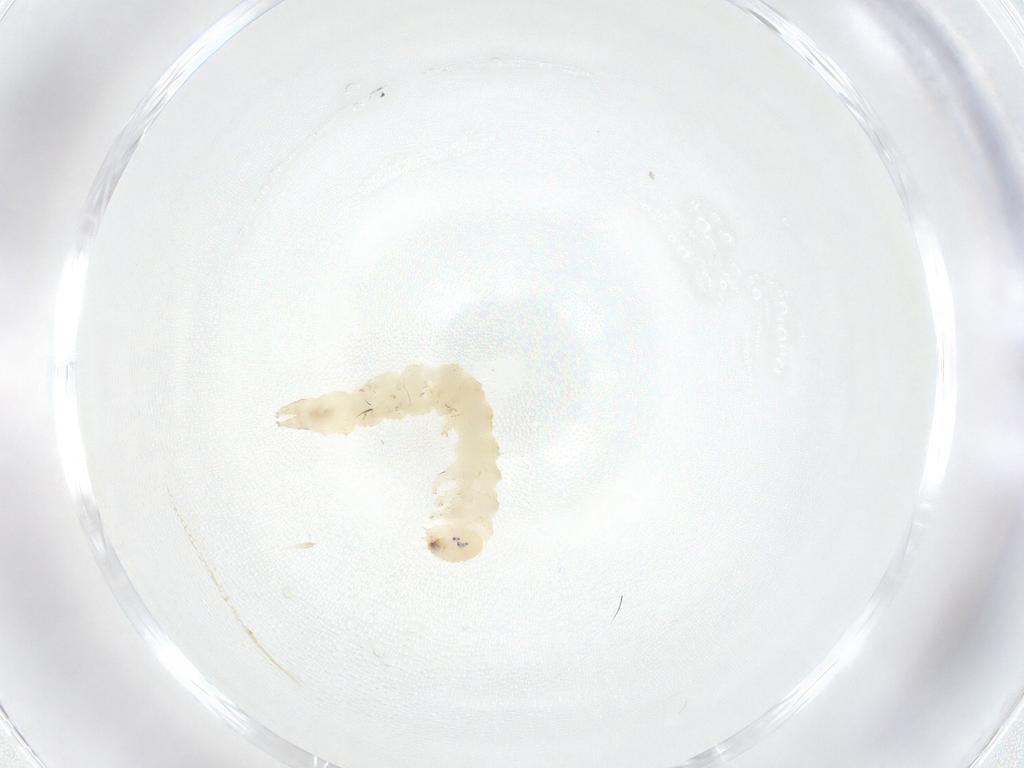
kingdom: Animalia
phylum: Arthropoda
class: Insecta
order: Lepidoptera
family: Erebidae
